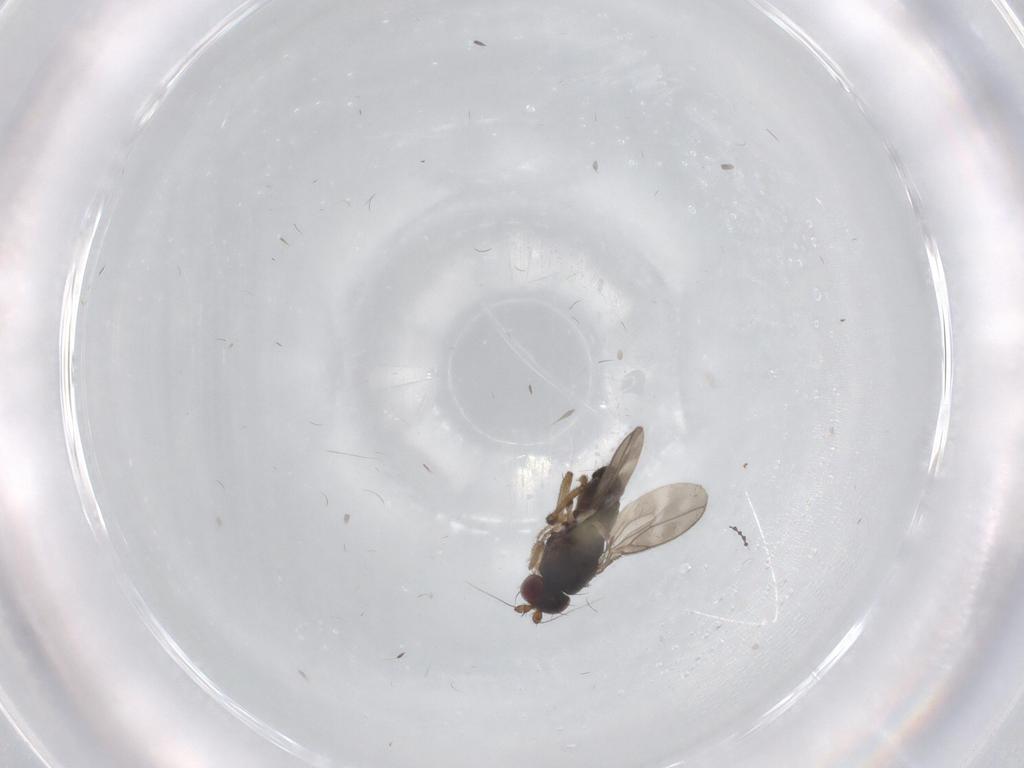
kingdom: Animalia
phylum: Arthropoda
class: Insecta
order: Diptera
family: Sphaeroceridae
